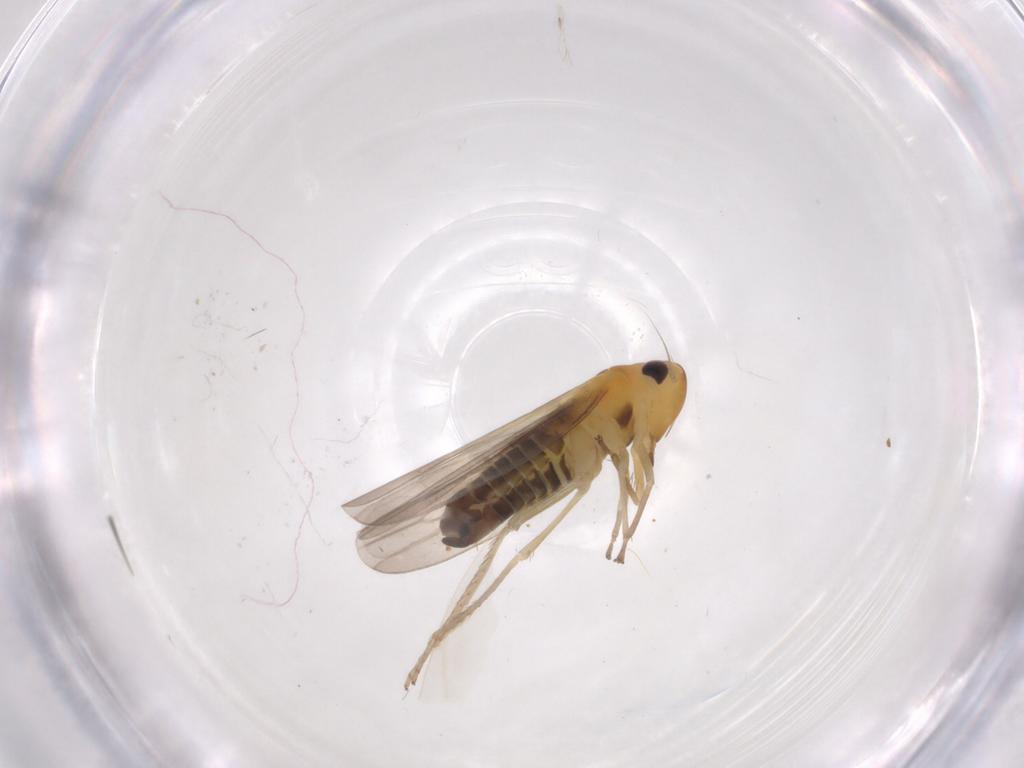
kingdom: Animalia
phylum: Arthropoda
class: Insecta
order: Hemiptera
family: Cicadellidae
